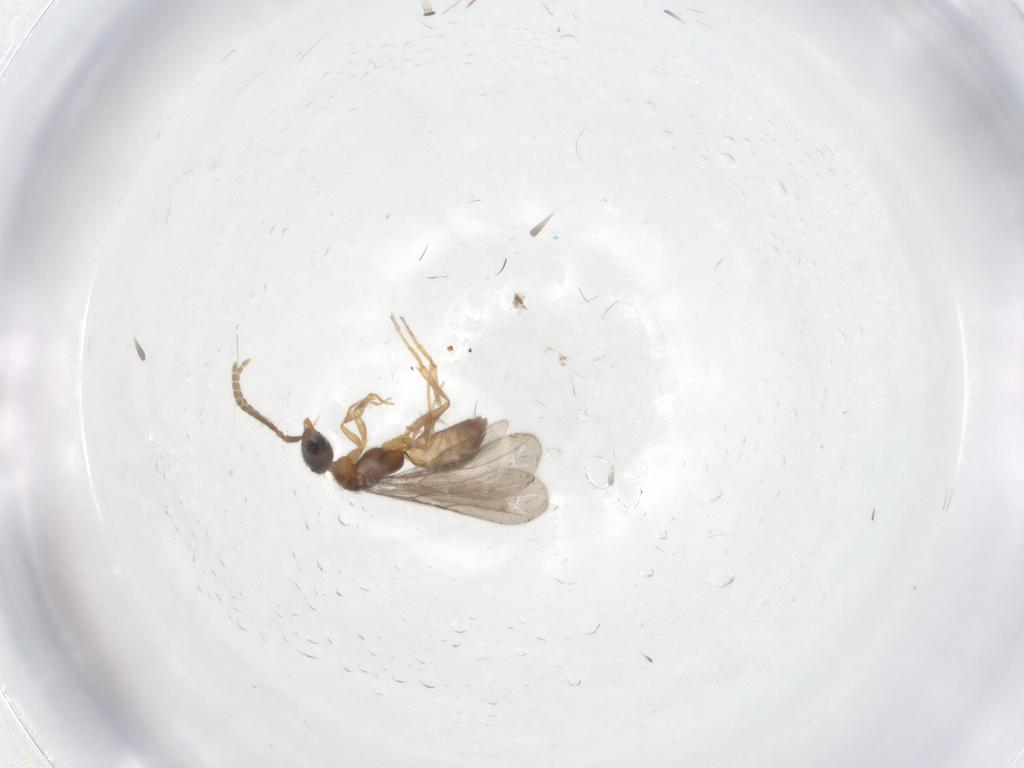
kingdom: Animalia
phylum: Arthropoda
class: Insecta
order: Hymenoptera
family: Bethylidae
